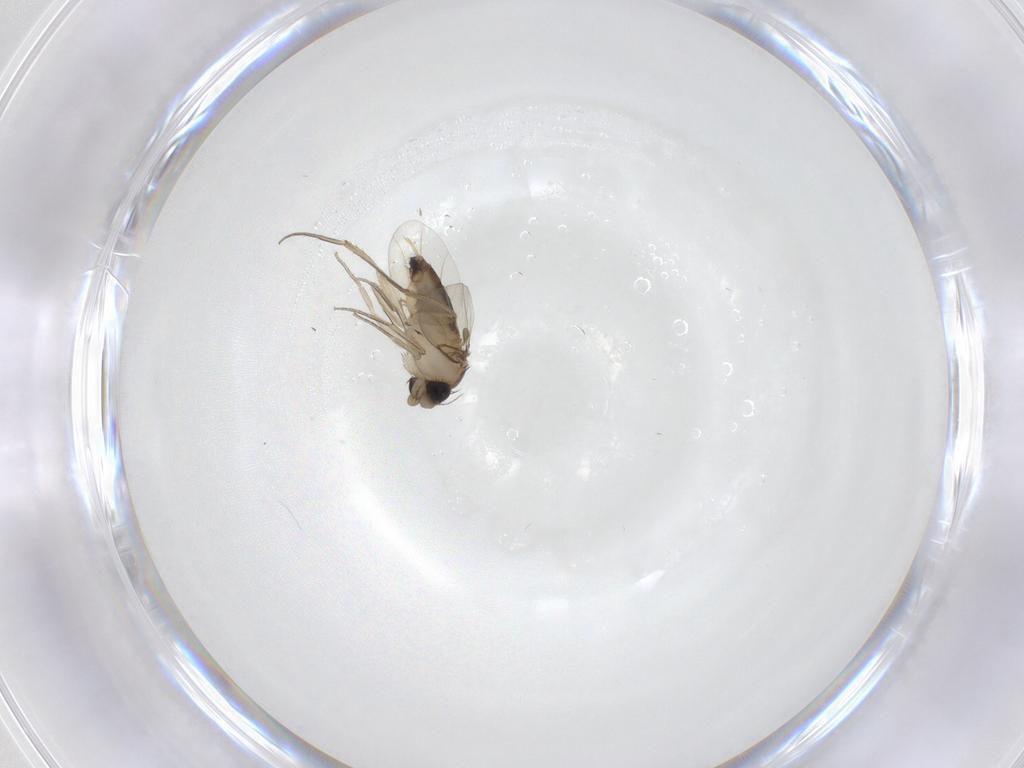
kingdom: Animalia
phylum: Arthropoda
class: Insecta
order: Diptera
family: Phoridae
